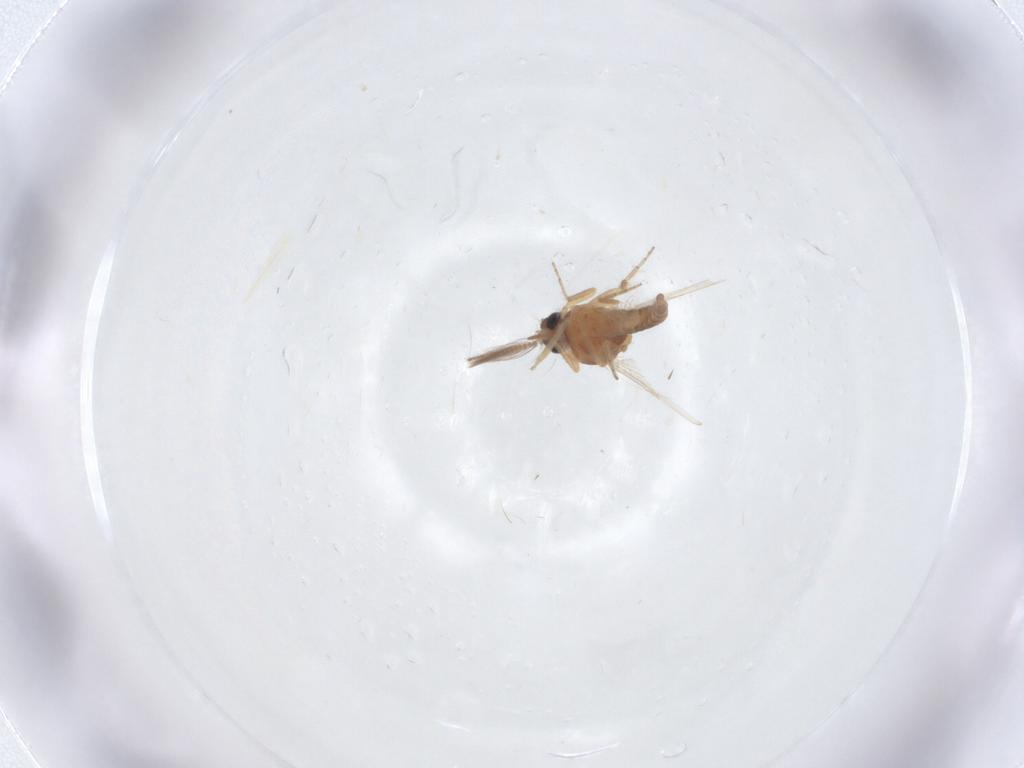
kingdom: Animalia
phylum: Arthropoda
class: Insecta
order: Diptera
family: Ceratopogonidae
